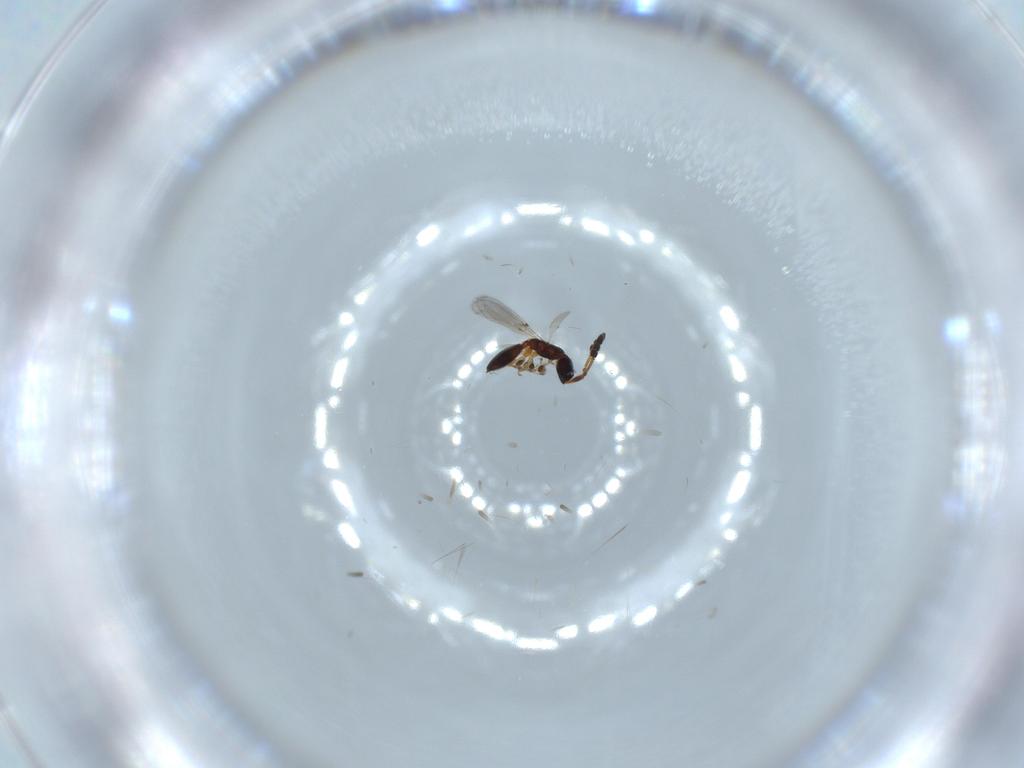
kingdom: Animalia
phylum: Arthropoda
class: Insecta
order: Hymenoptera
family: Diapriidae
